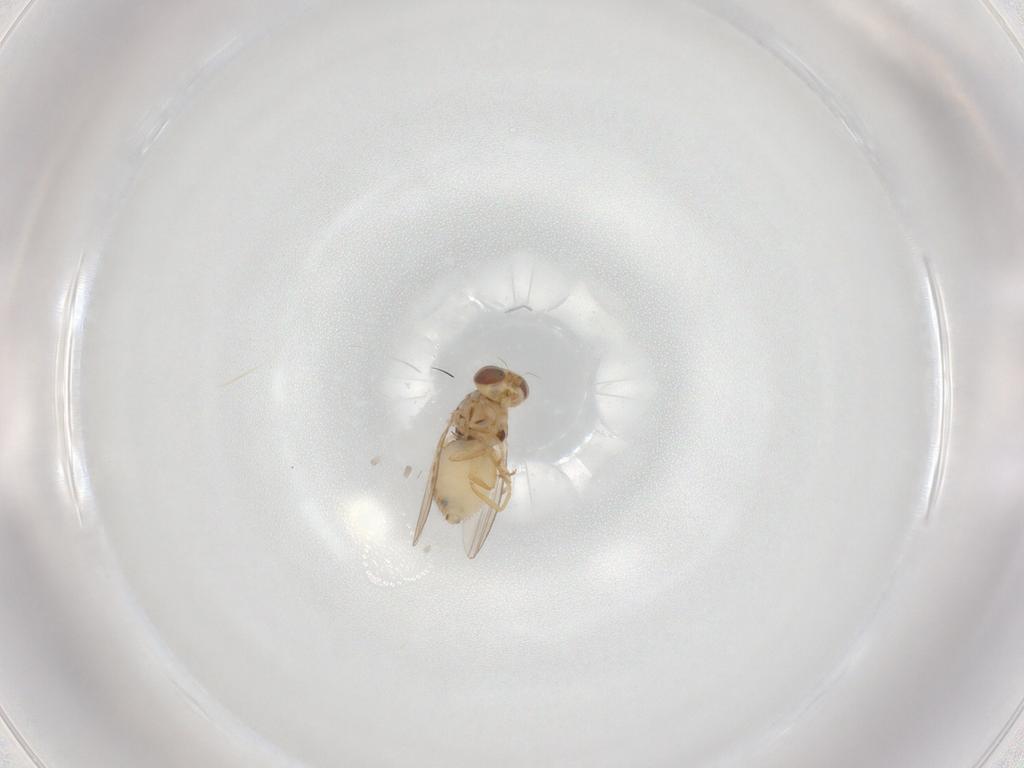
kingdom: Animalia
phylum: Arthropoda
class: Insecta
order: Diptera
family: Chyromyidae
